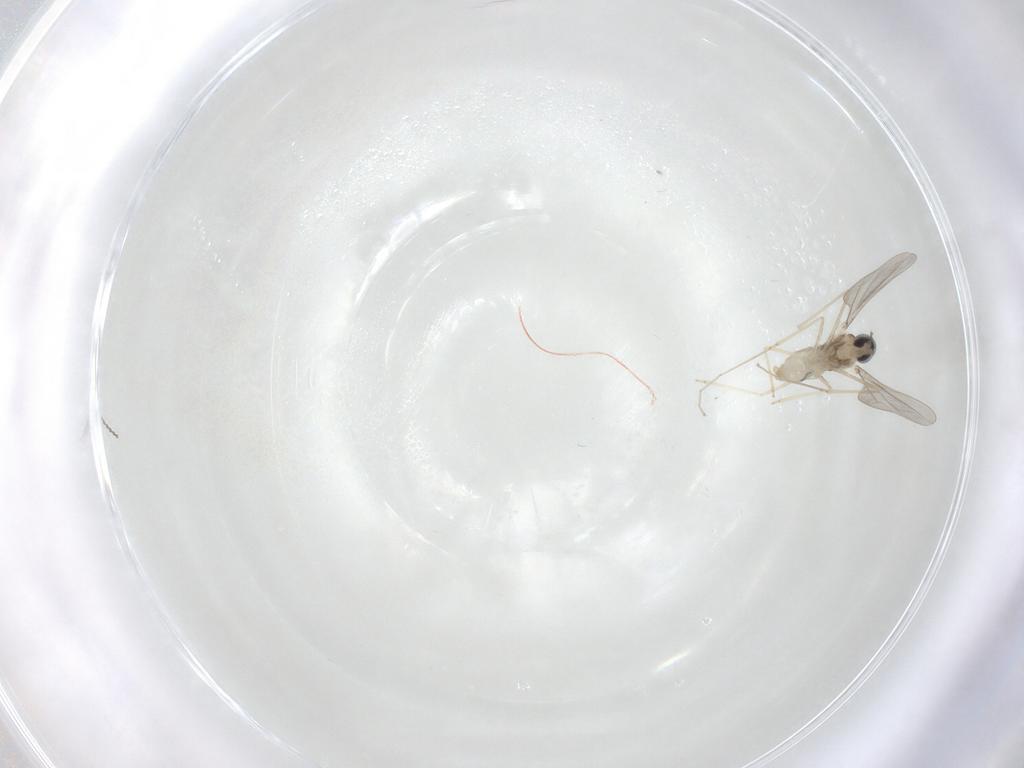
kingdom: Animalia
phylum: Arthropoda
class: Insecta
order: Diptera
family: Cecidomyiidae
